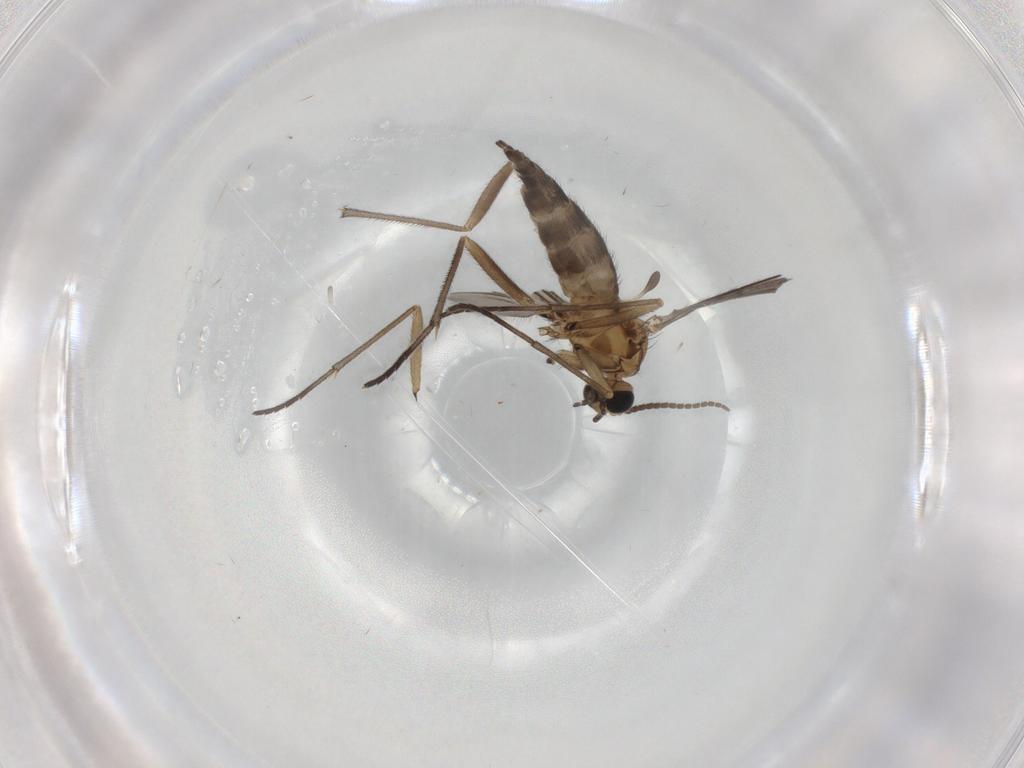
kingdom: Animalia
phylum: Arthropoda
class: Insecta
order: Diptera
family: Sciaridae
